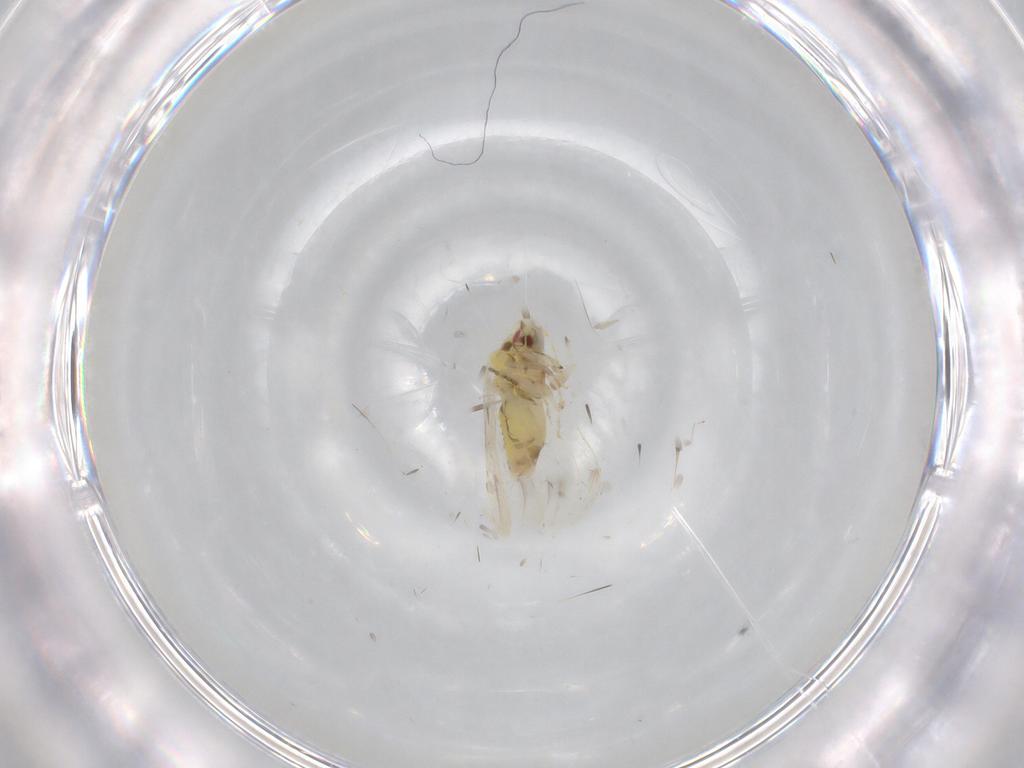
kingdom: Animalia
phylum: Arthropoda
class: Insecta
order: Hemiptera
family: Aleyrodidae
